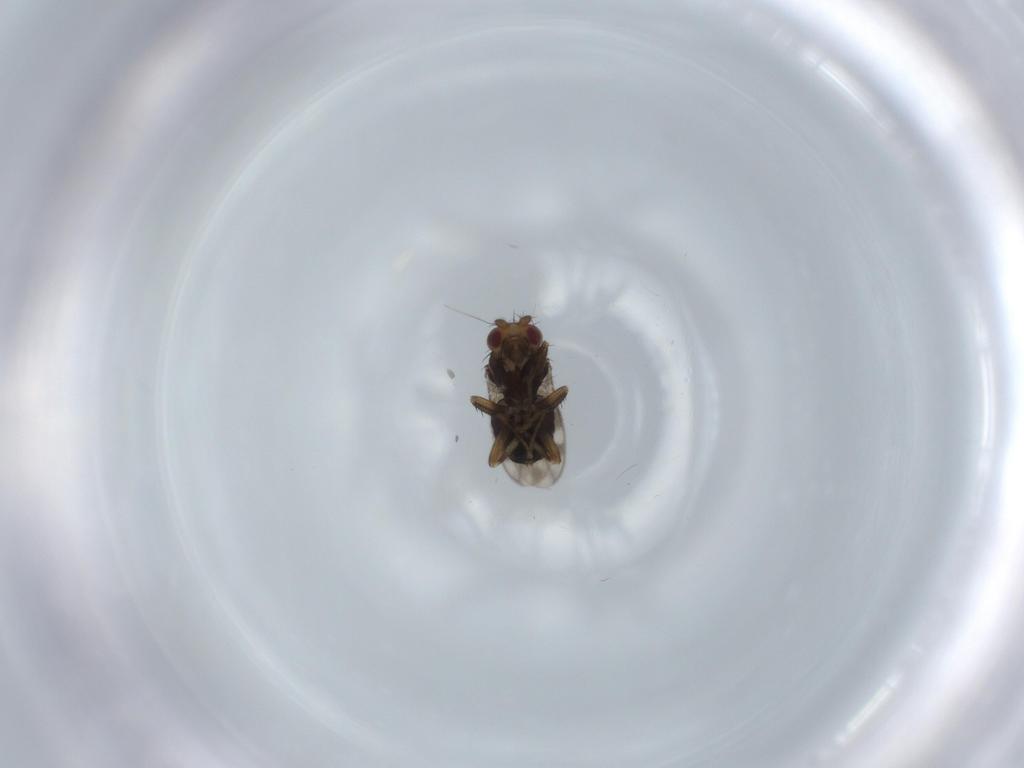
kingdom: Animalia
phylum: Arthropoda
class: Insecta
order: Diptera
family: Sphaeroceridae
